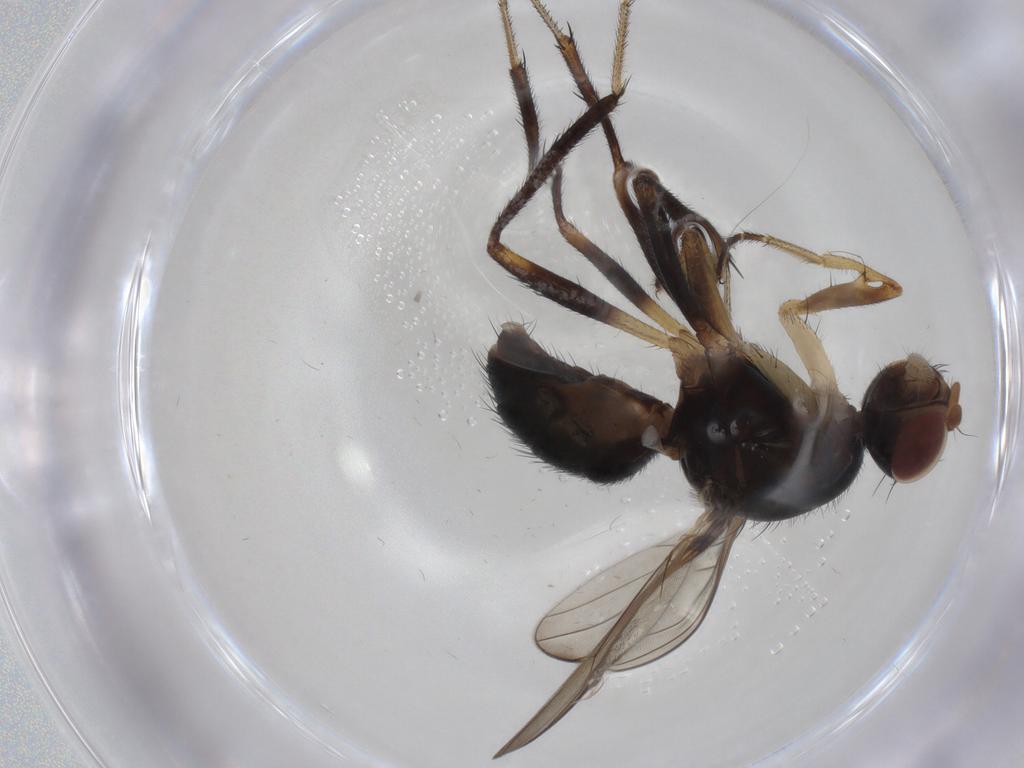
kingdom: Animalia
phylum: Arthropoda
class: Insecta
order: Diptera
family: Sepsidae
